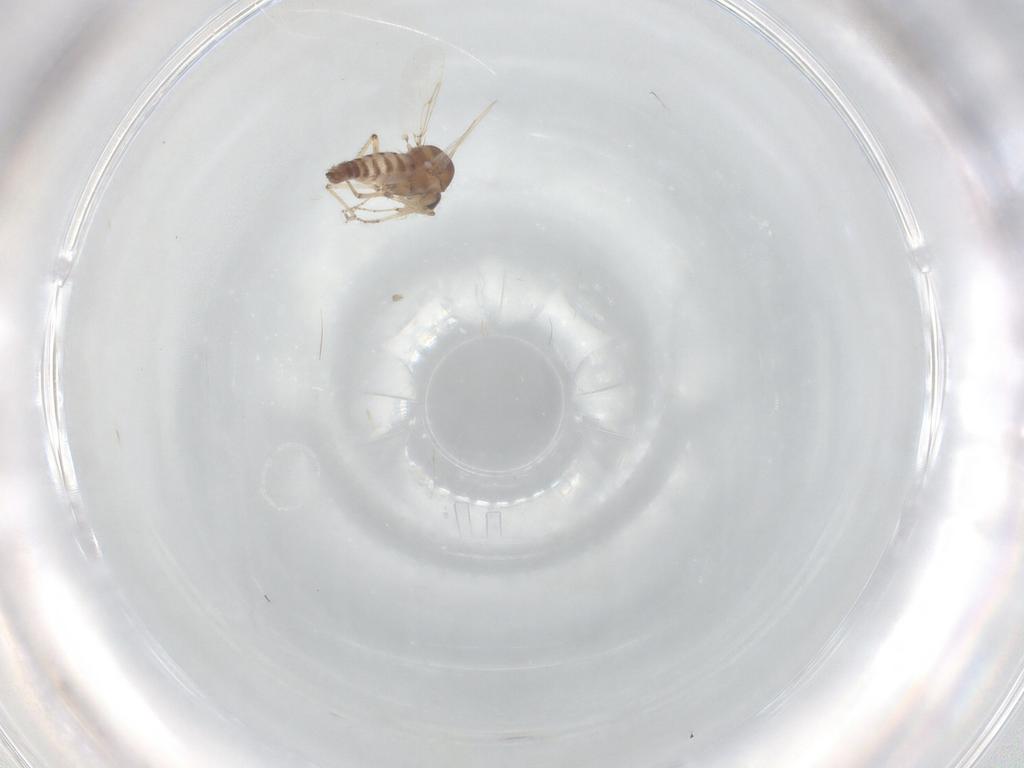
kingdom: Animalia
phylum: Arthropoda
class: Insecta
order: Diptera
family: Ceratopogonidae
